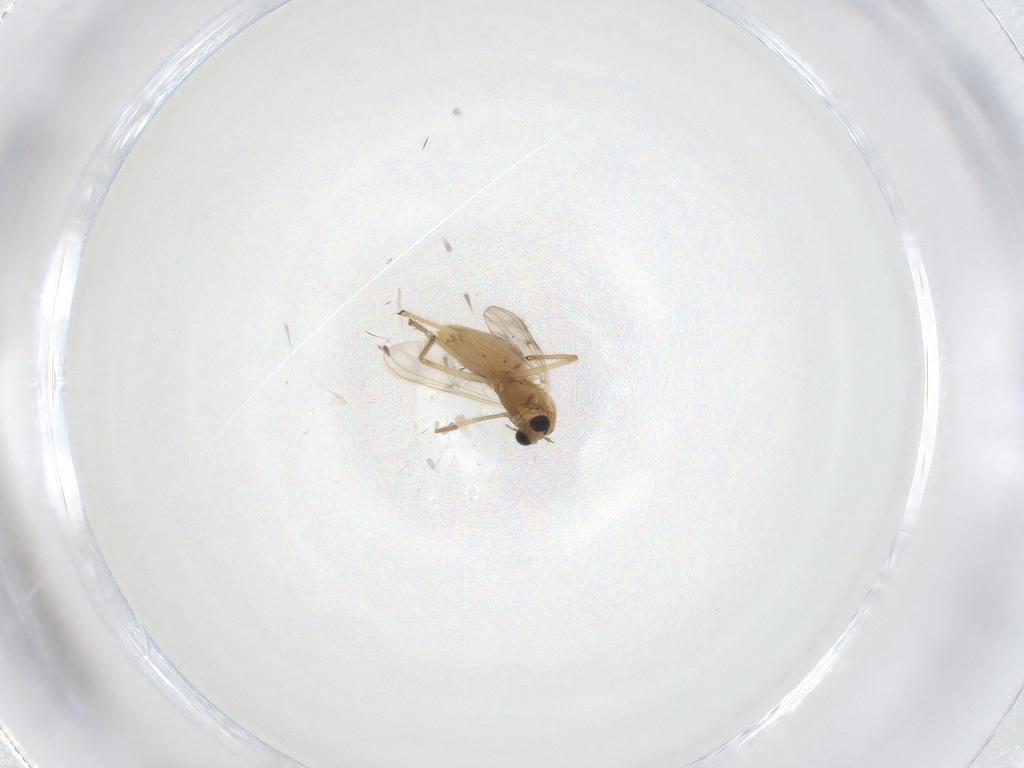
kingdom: Animalia
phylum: Arthropoda
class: Insecta
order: Diptera
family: Chironomidae
